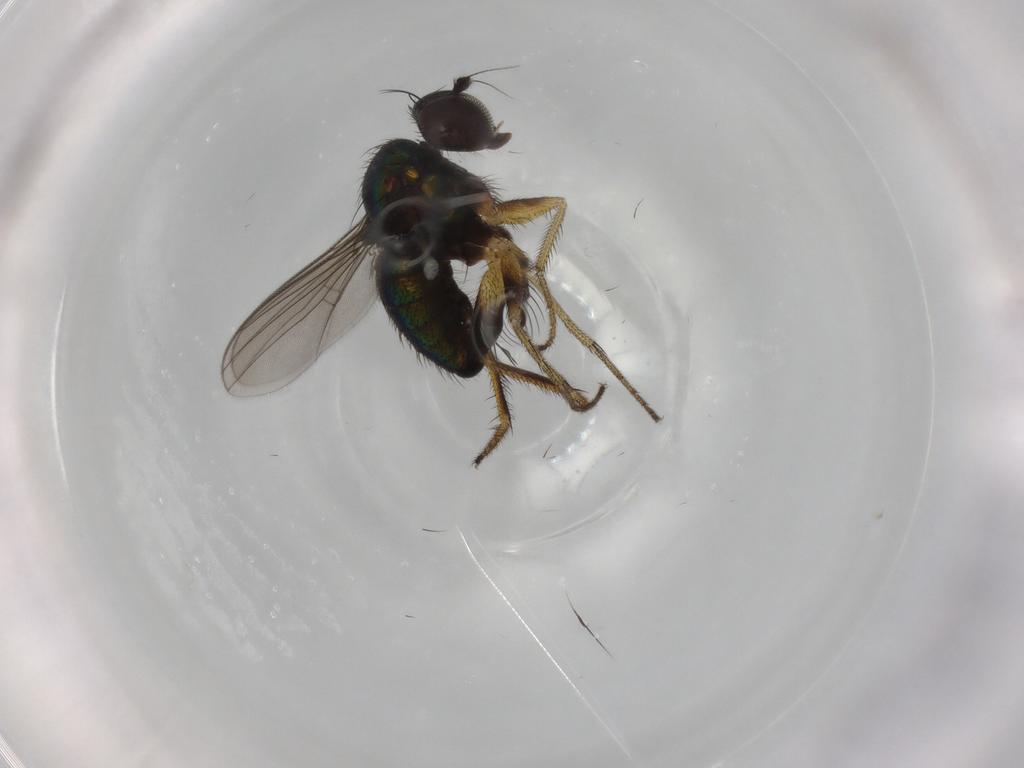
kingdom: Animalia
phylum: Arthropoda
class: Insecta
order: Diptera
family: Dolichopodidae
